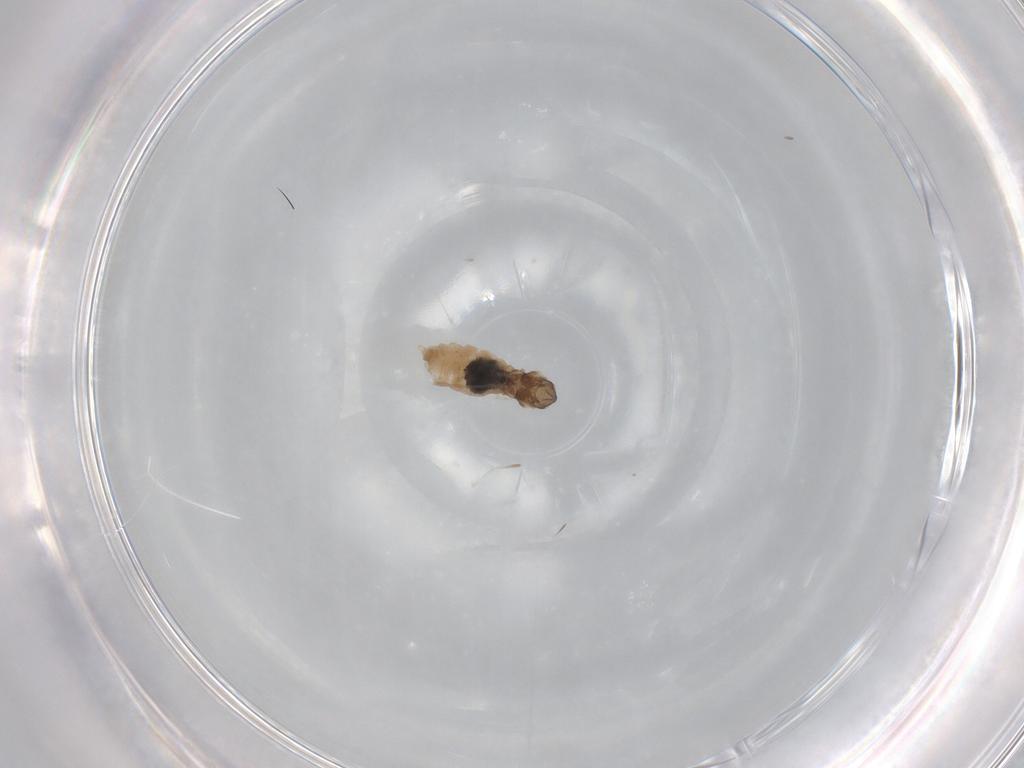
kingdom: Animalia
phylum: Arthropoda
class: Insecta
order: Diptera
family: Cecidomyiidae
